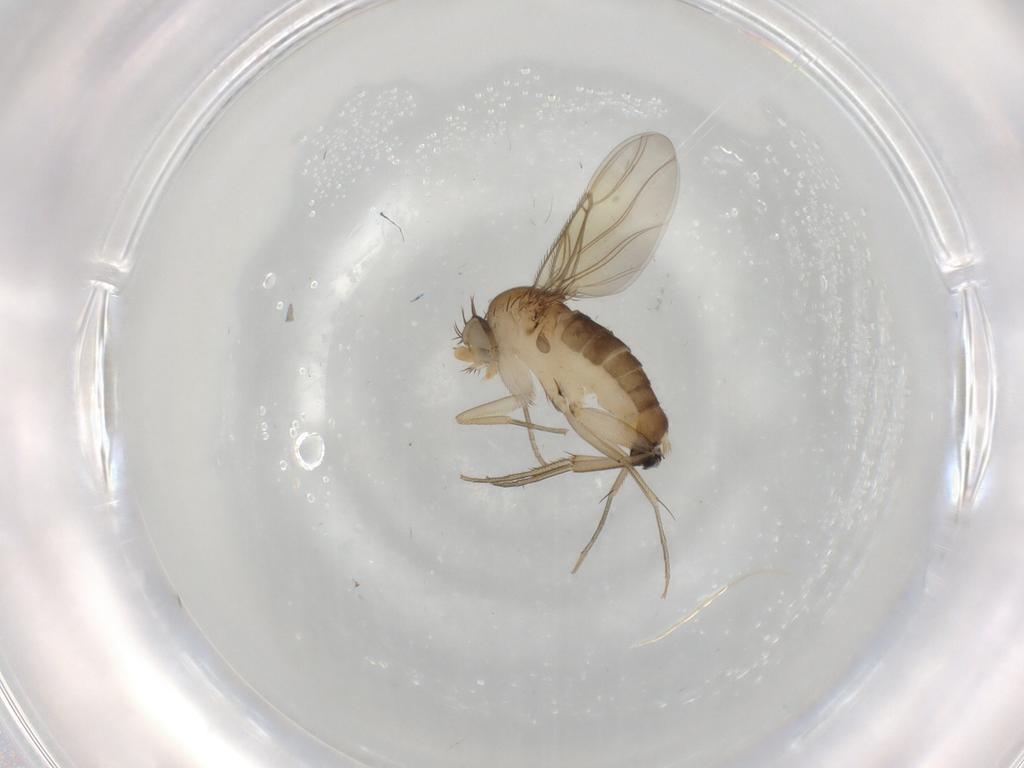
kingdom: Animalia
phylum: Arthropoda
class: Insecta
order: Diptera
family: Phoridae
